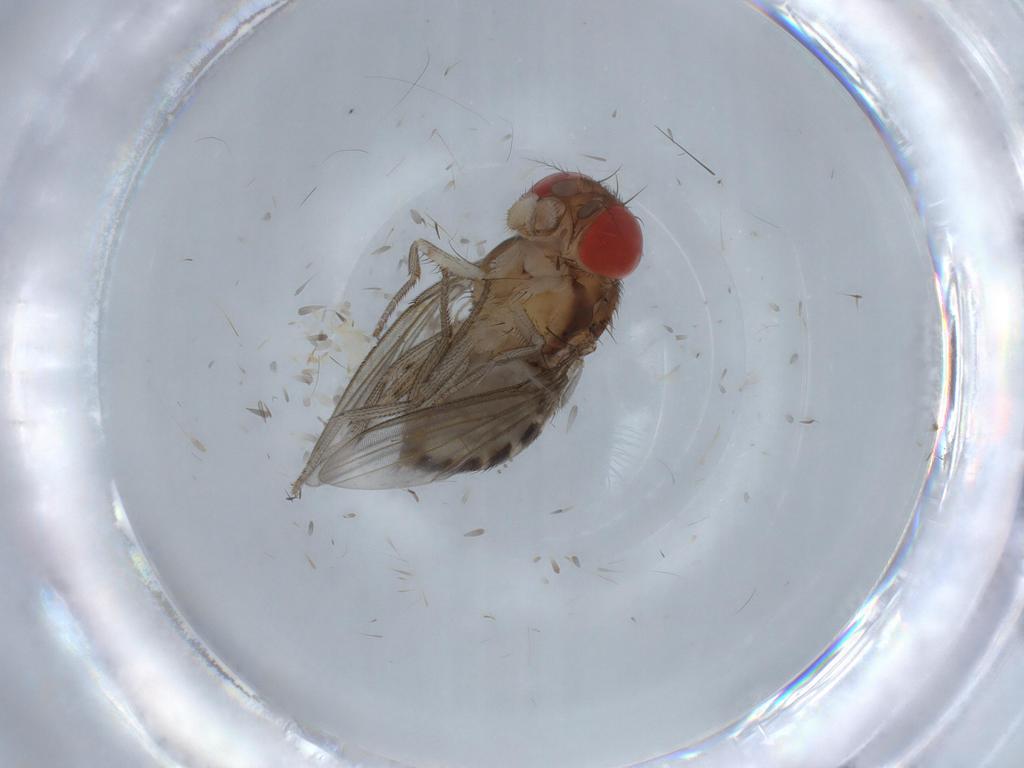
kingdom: Animalia
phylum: Arthropoda
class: Insecta
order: Diptera
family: Drosophilidae
